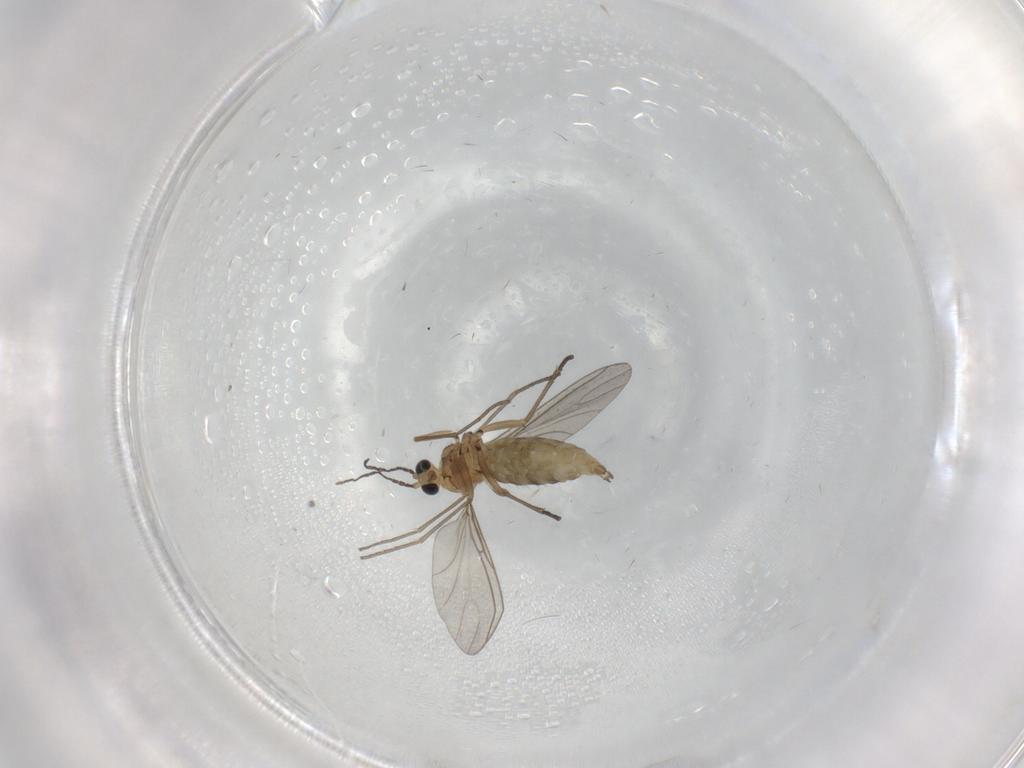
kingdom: Animalia
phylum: Arthropoda
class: Insecta
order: Diptera
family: Sciaridae
